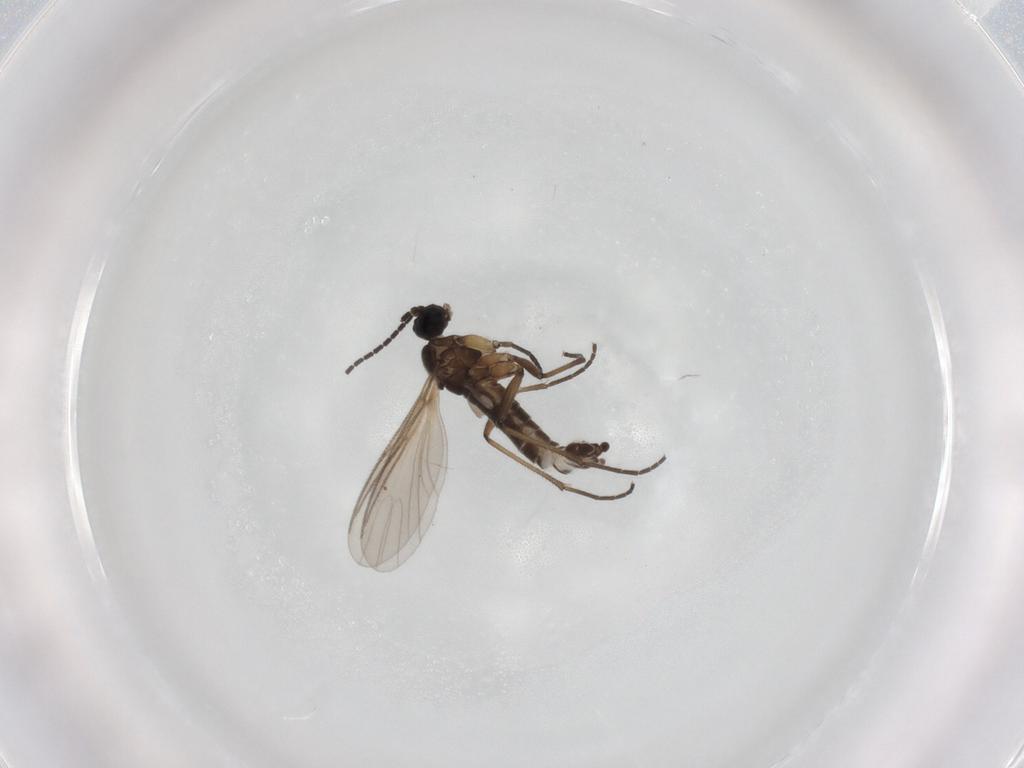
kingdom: Animalia
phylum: Arthropoda
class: Insecta
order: Diptera
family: Sciaridae
